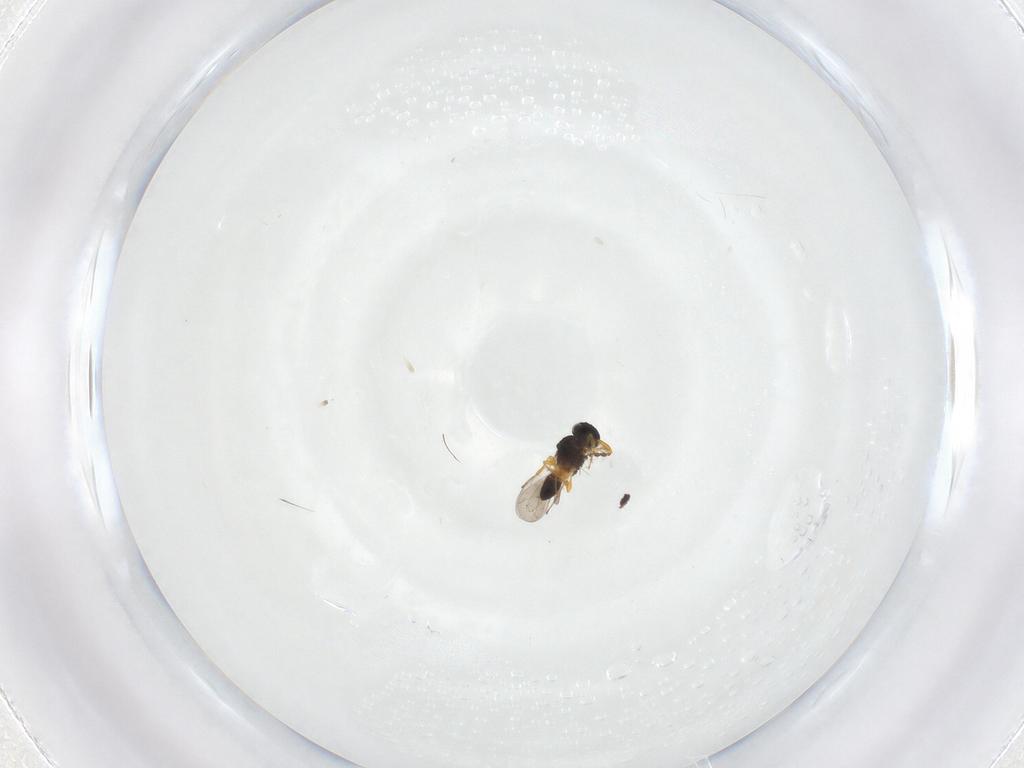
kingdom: Animalia
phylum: Arthropoda
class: Insecta
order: Hymenoptera
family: Platygastridae
